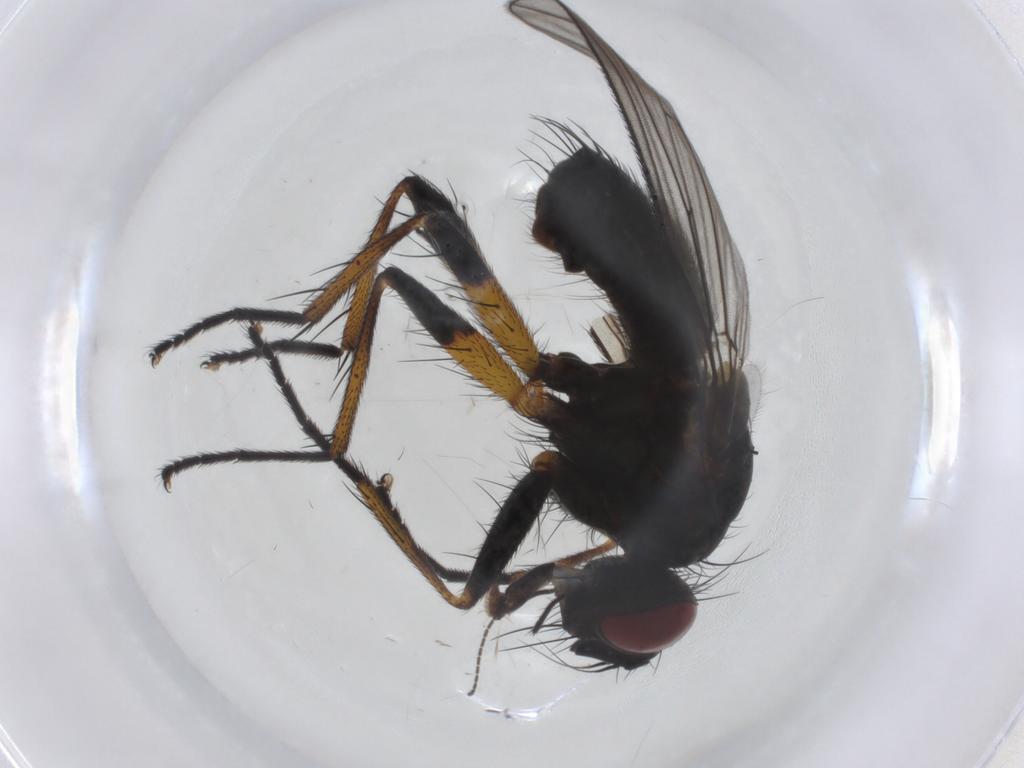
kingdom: Animalia
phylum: Arthropoda
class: Insecta
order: Diptera
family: Muscidae
